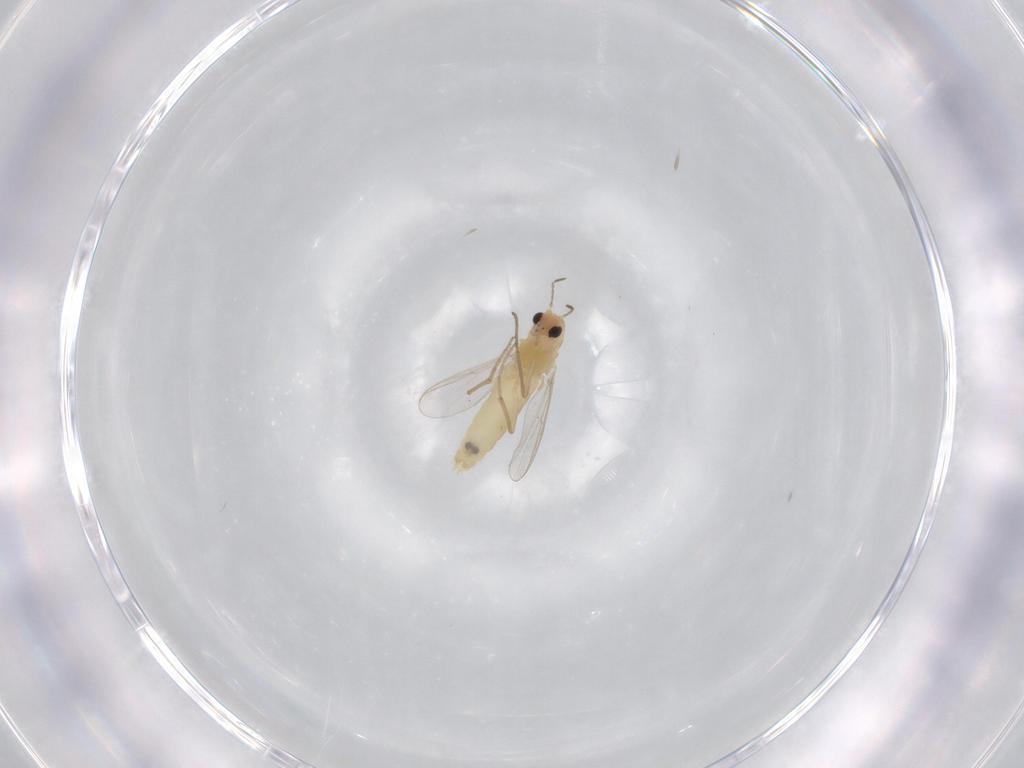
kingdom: Animalia
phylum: Arthropoda
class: Insecta
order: Diptera
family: Chironomidae
